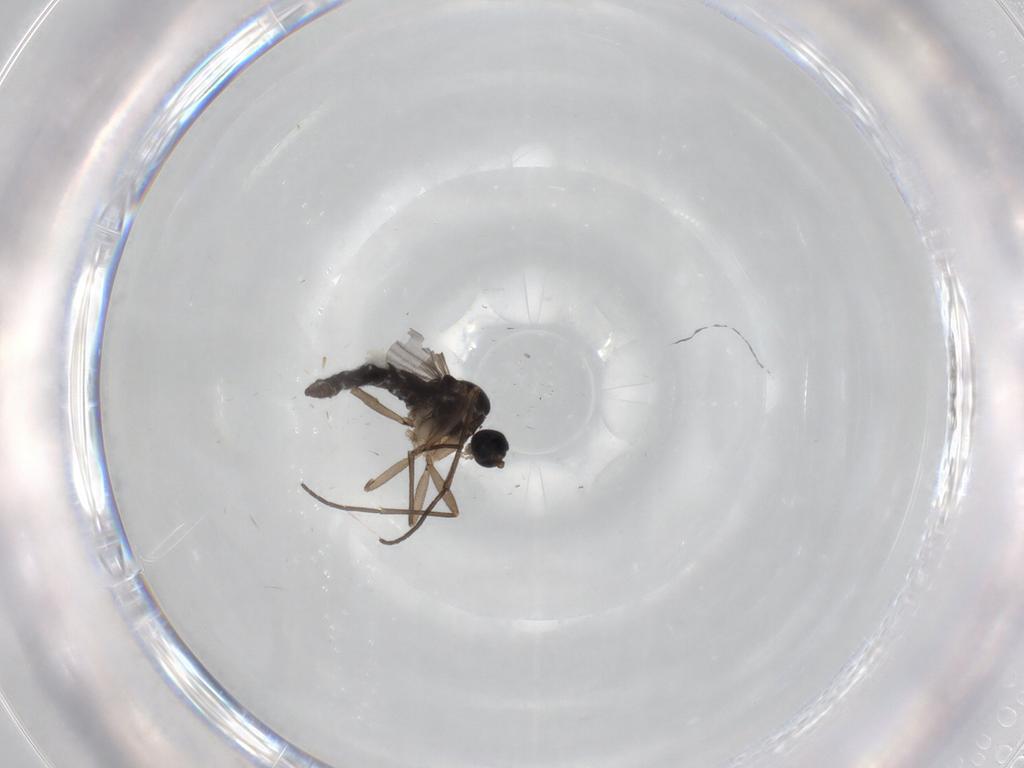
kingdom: Animalia
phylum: Arthropoda
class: Insecta
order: Diptera
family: Sciaridae
